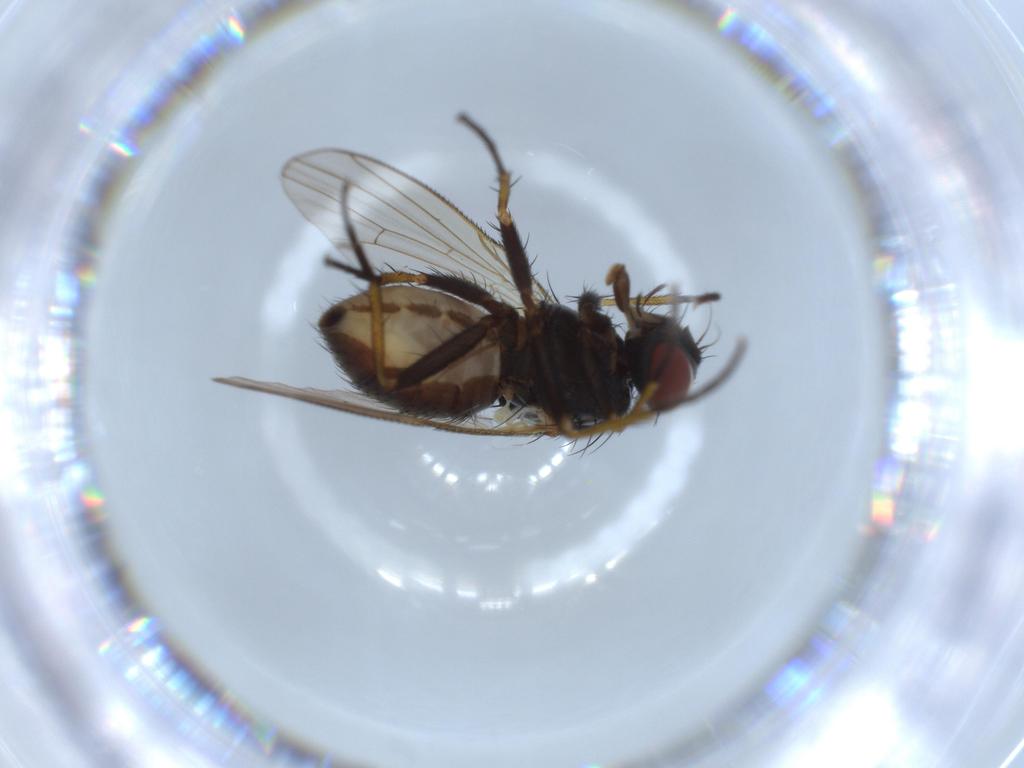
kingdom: Animalia
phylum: Arthropoda
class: Insecta
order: Diptera
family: Muscidae
